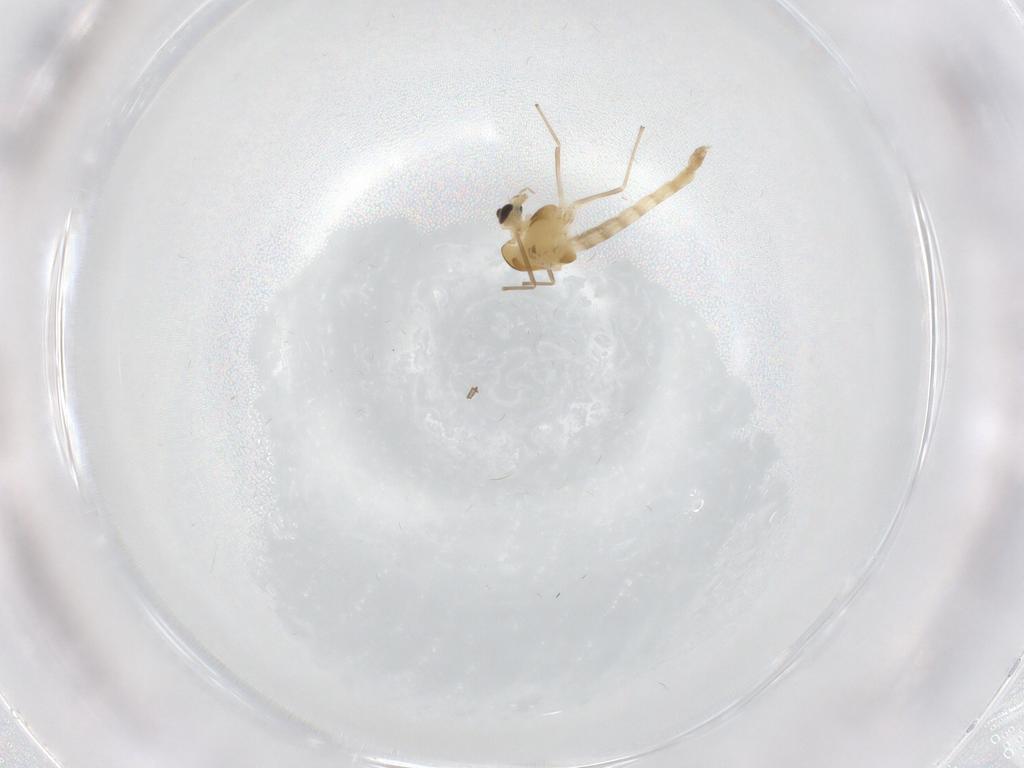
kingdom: Animalia
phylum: Arthropoda
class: Insecta
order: Diptera
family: Chironomidae
